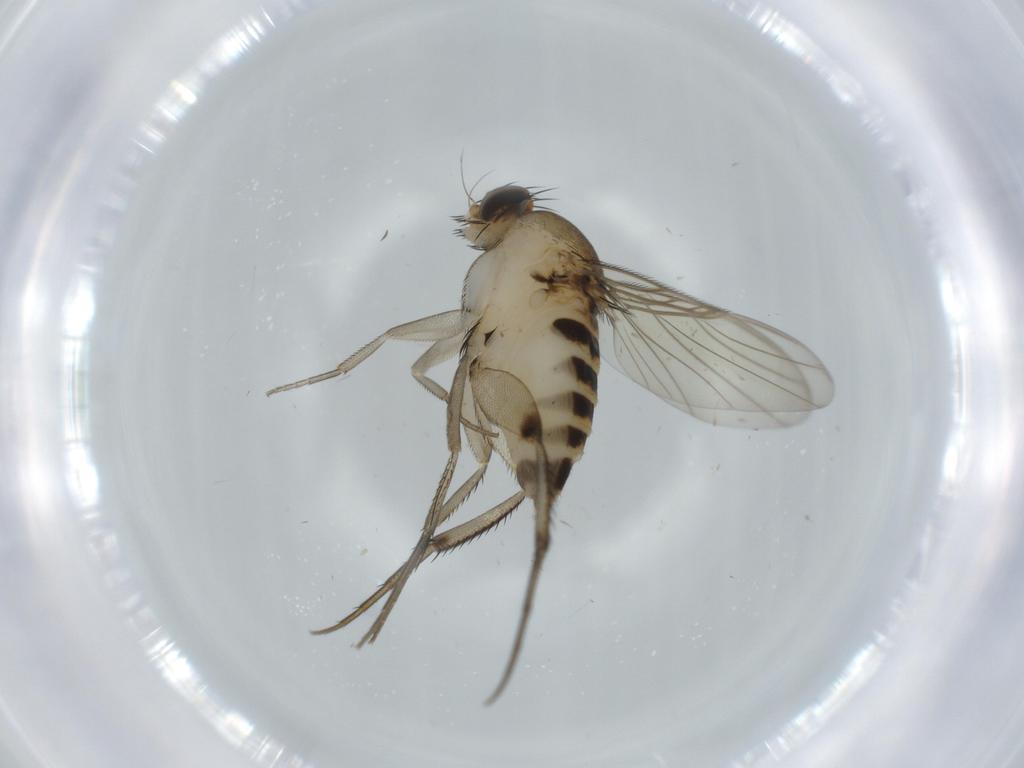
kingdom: Animalia
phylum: Arthropoda
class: Insecta
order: Diptera
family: Phoridae
